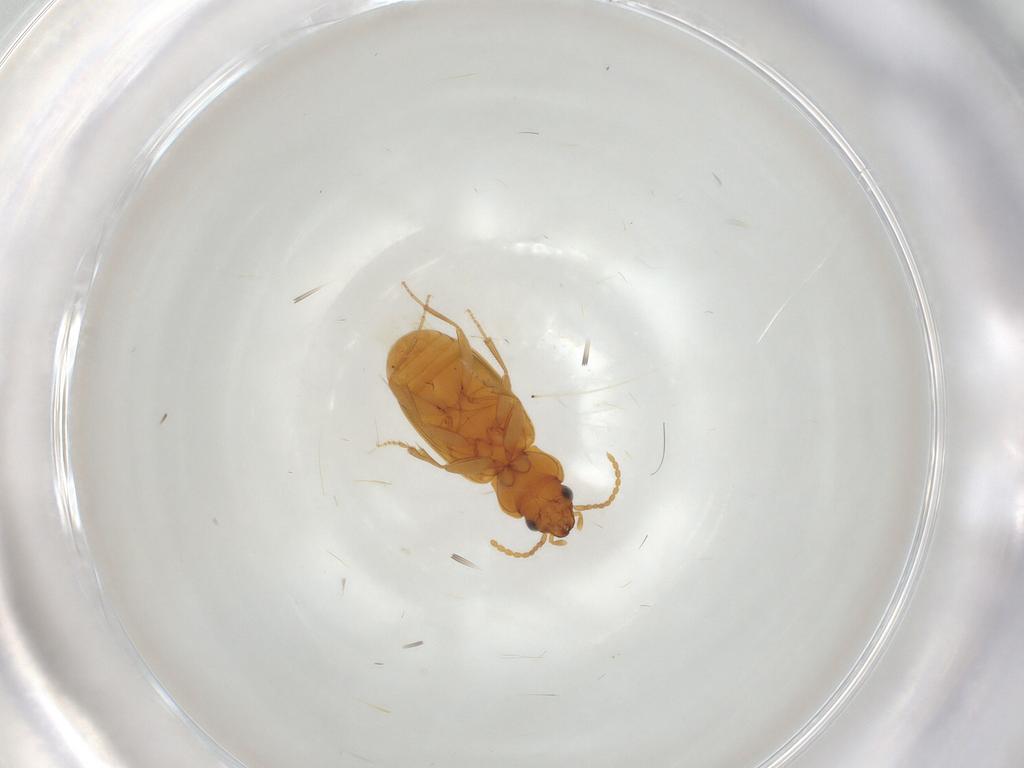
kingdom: Animalia
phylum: Arthropoda
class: Insecta
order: Coleoptera
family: Carabidae
